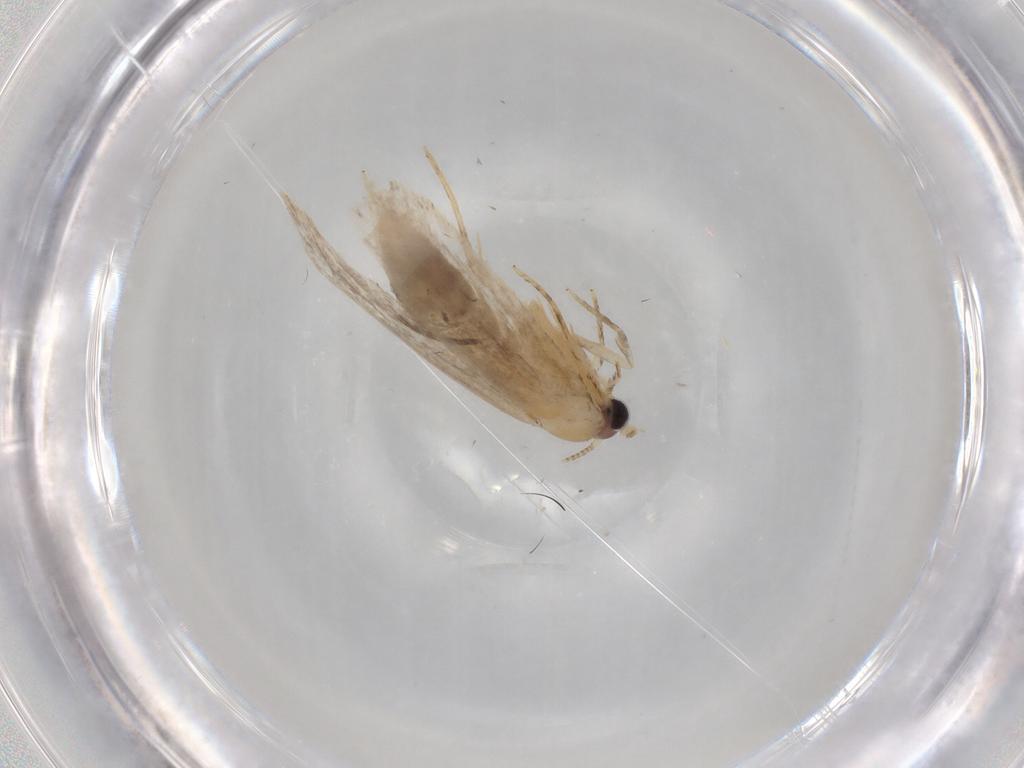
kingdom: Animalia
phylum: Arthropoda
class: Insecta
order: Lepidoptera
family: Nepticulidae
